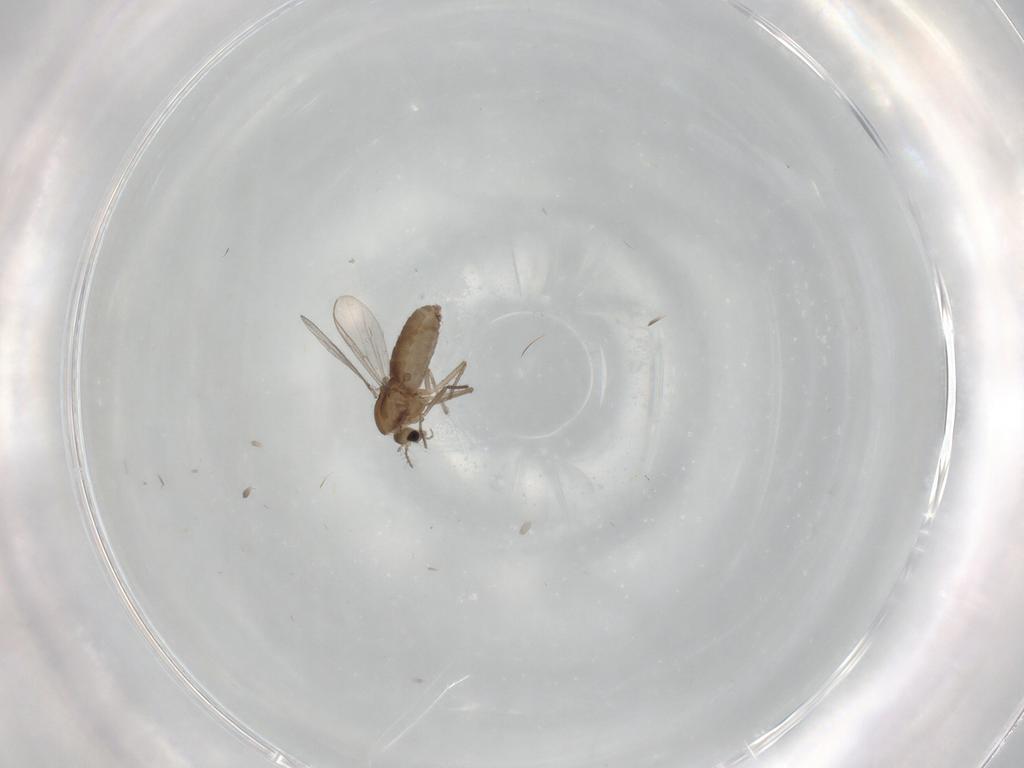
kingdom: Animalia
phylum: Arthropoda
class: Insecta
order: Diptera
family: Chironomidae
